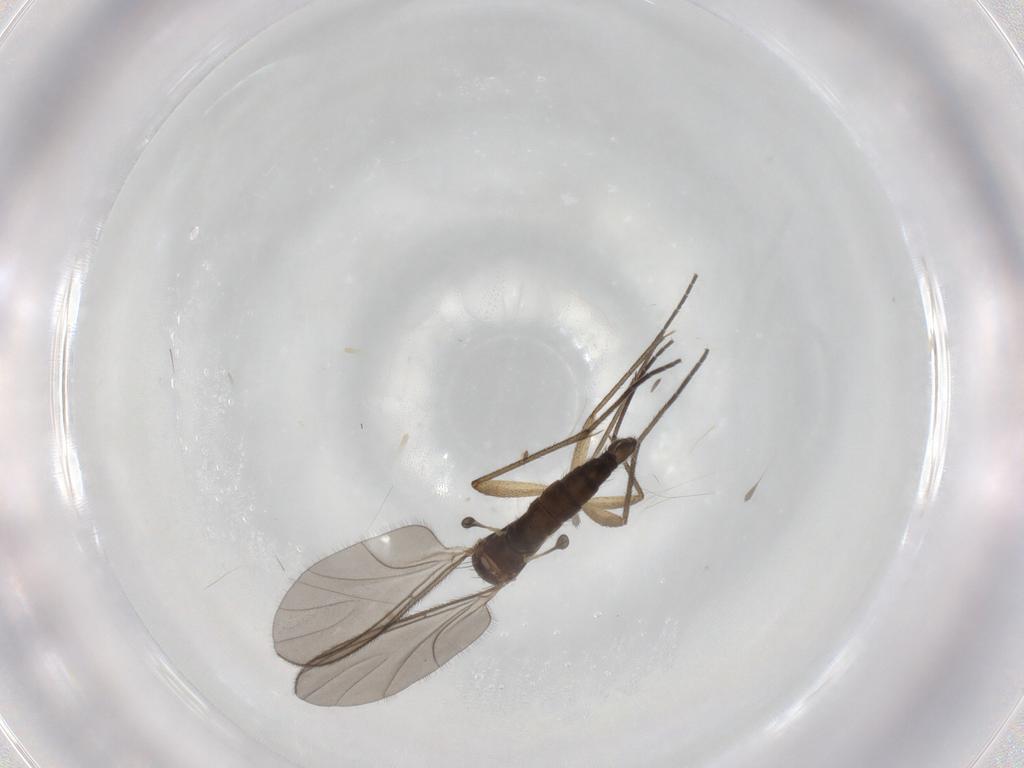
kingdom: Animalia
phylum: Arthropoda
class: Insecta
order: Diptera
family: Sciaridae
